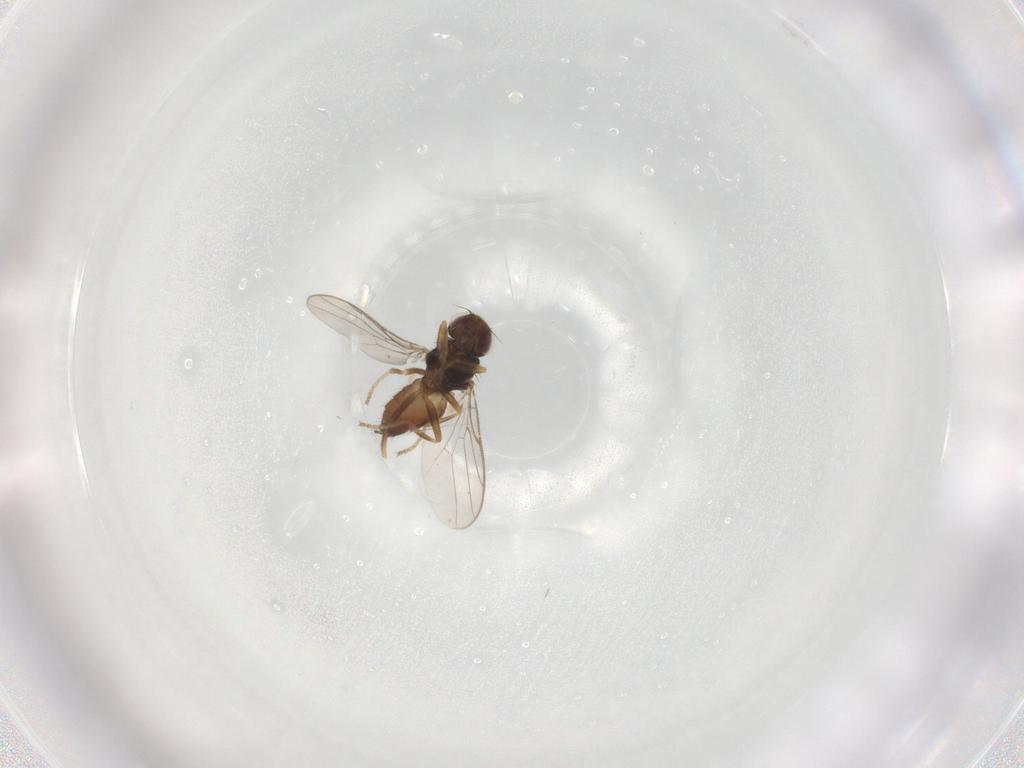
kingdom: Animalia
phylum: Arthropoda
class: Insecta
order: Diptera
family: Chloropidae
